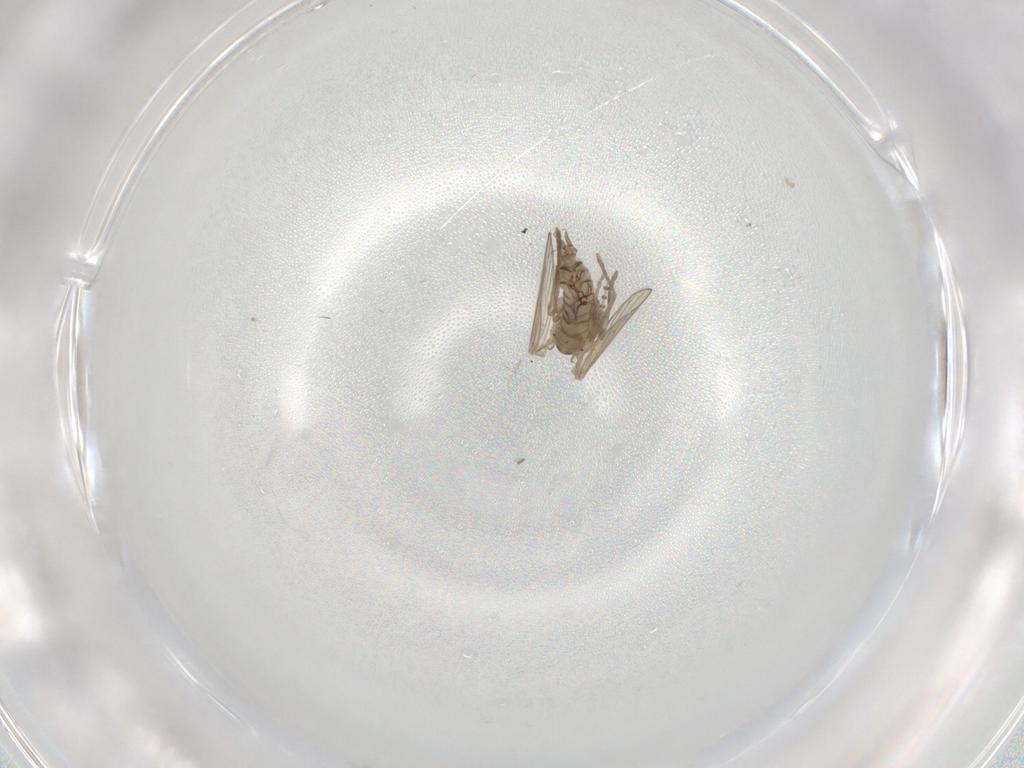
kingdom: Animalia
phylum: Arthropoda
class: Insecta
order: Diptera
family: Psychodidae
